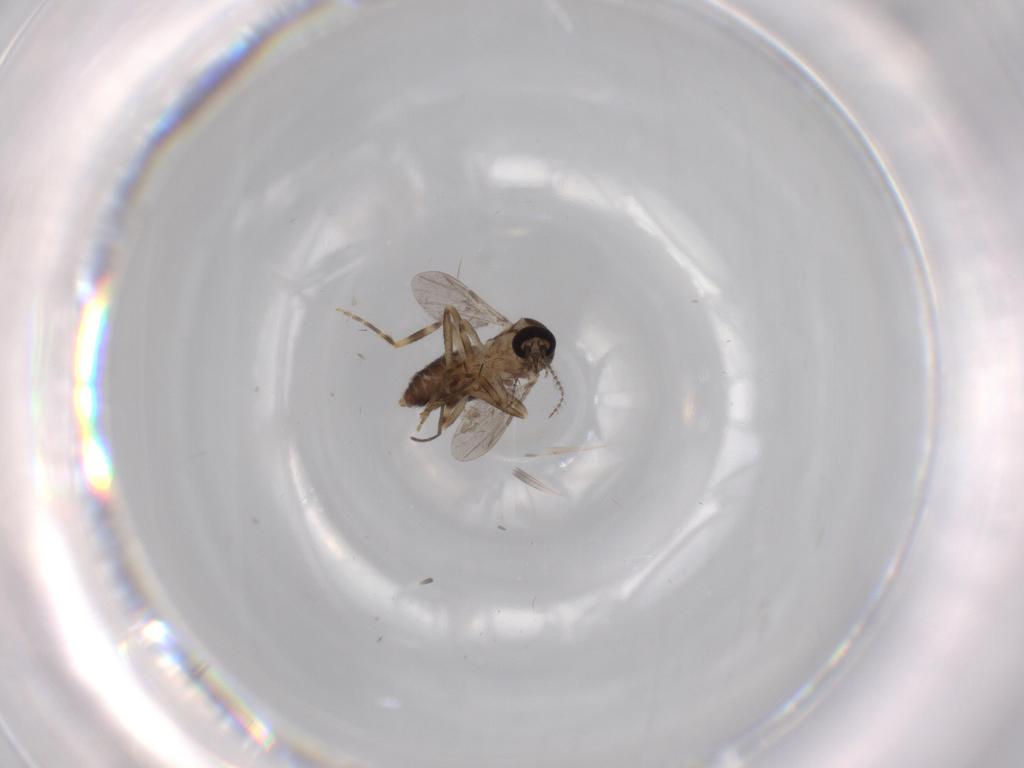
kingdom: Animalia
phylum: Arthropoda
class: Insecta
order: Diptera
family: Ceratopogonidae
